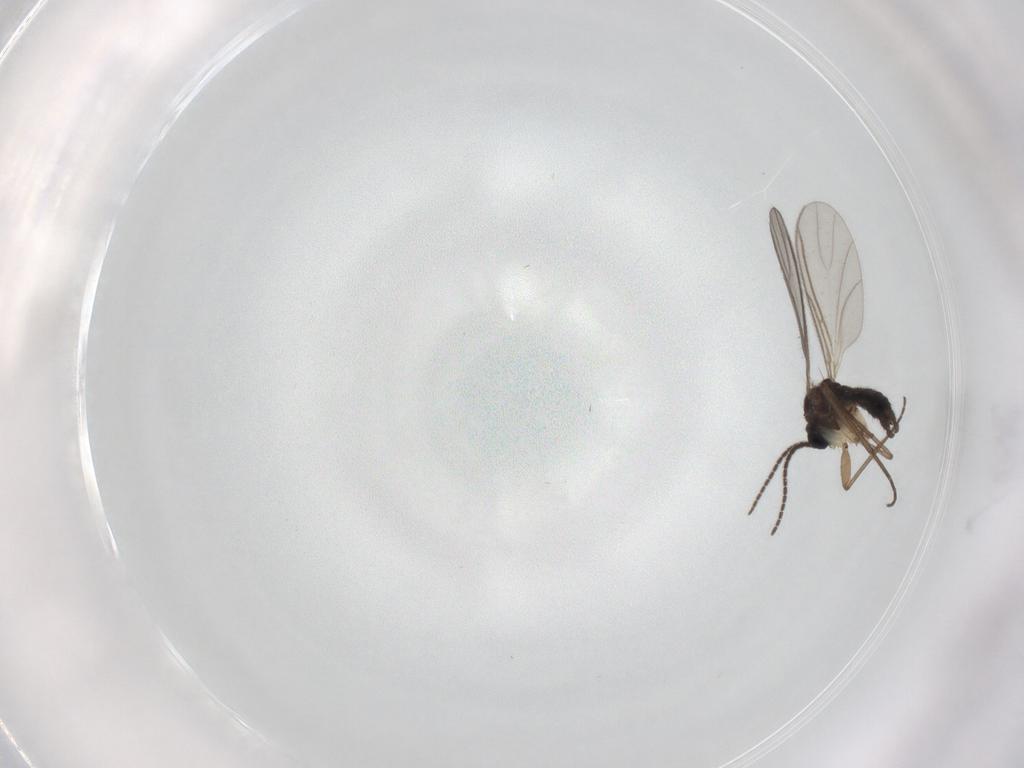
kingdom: Animalia
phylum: Arthropoda
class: Insecta
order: Diptera
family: Sciaridae
